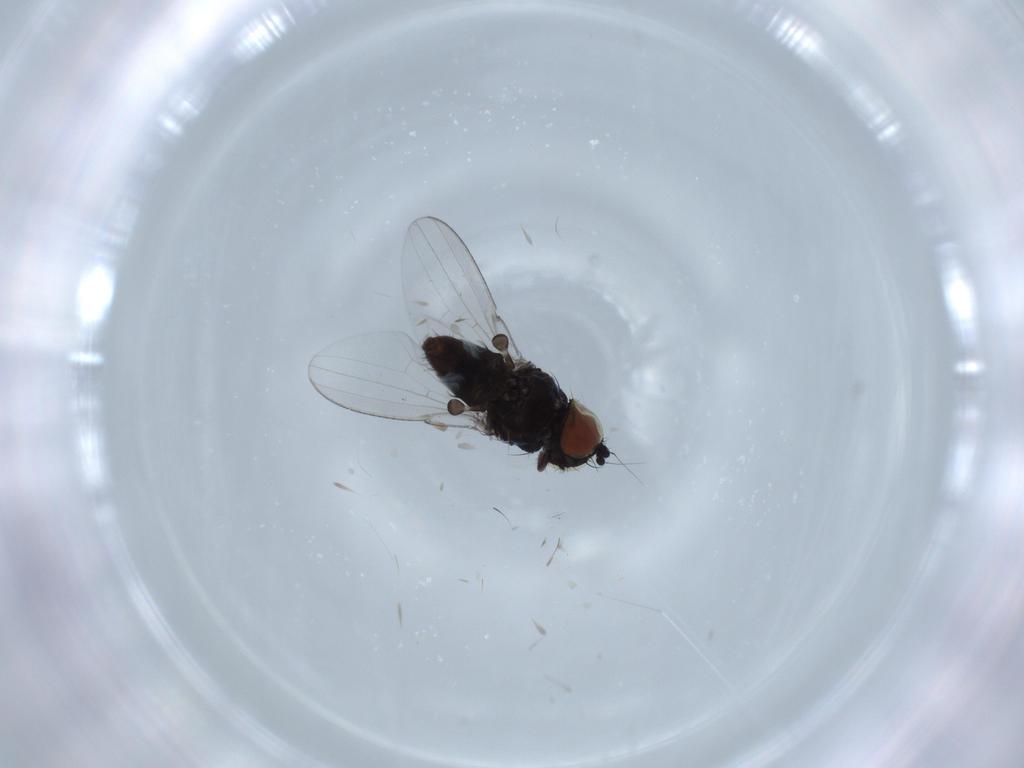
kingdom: Animalia
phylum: Arthropoda
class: Insecta
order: Diptera
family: Milichiidae
